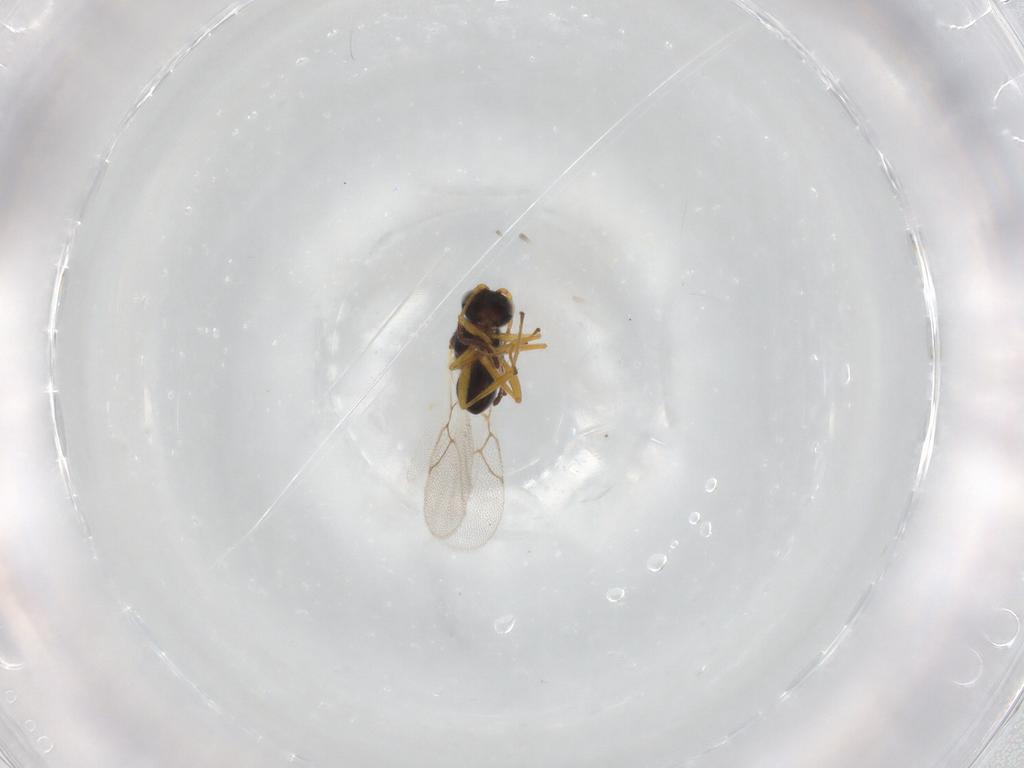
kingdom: Animalia
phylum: Arthropoda
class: Insecta
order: Hymenoptera
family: Figitidae
